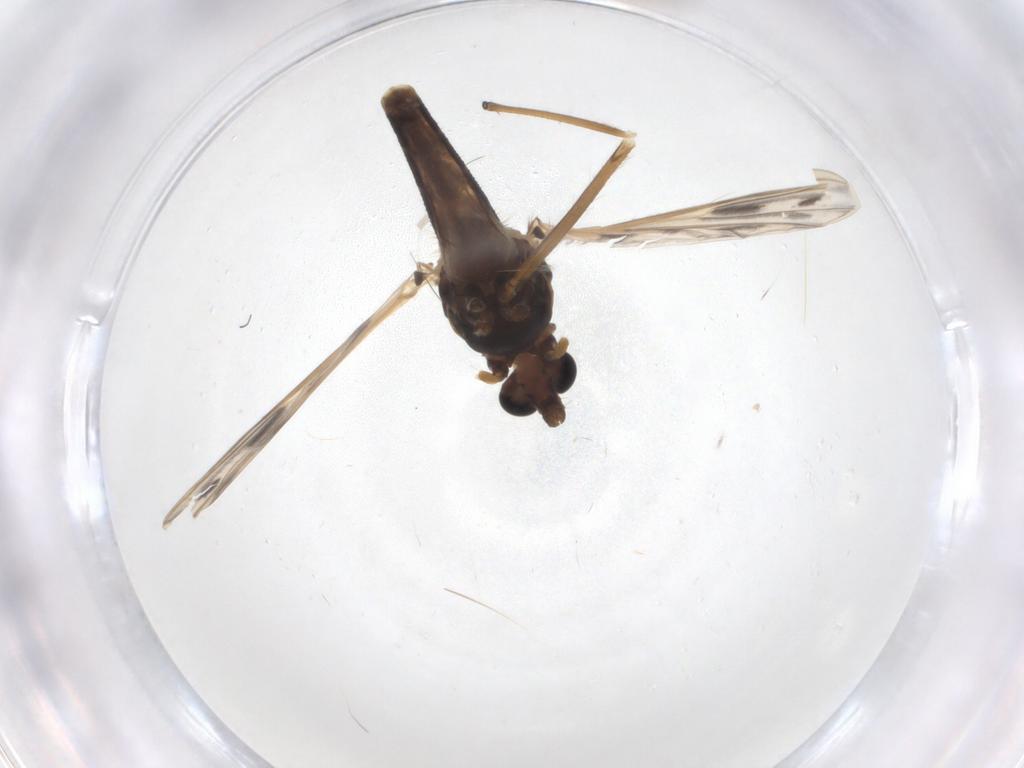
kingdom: Animalia
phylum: Arthropoda
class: Insecta
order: Diptera
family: Chironomidae
